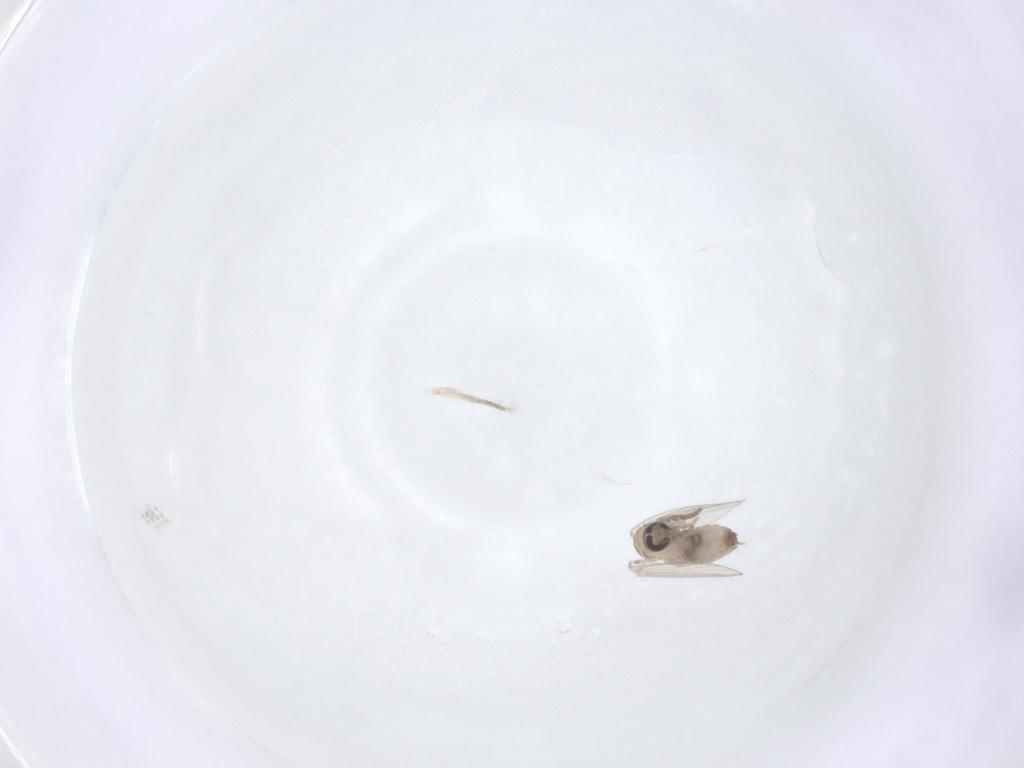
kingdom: Animalia
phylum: Arthropoda
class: Insecta
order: Diptera
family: Psychodidae
